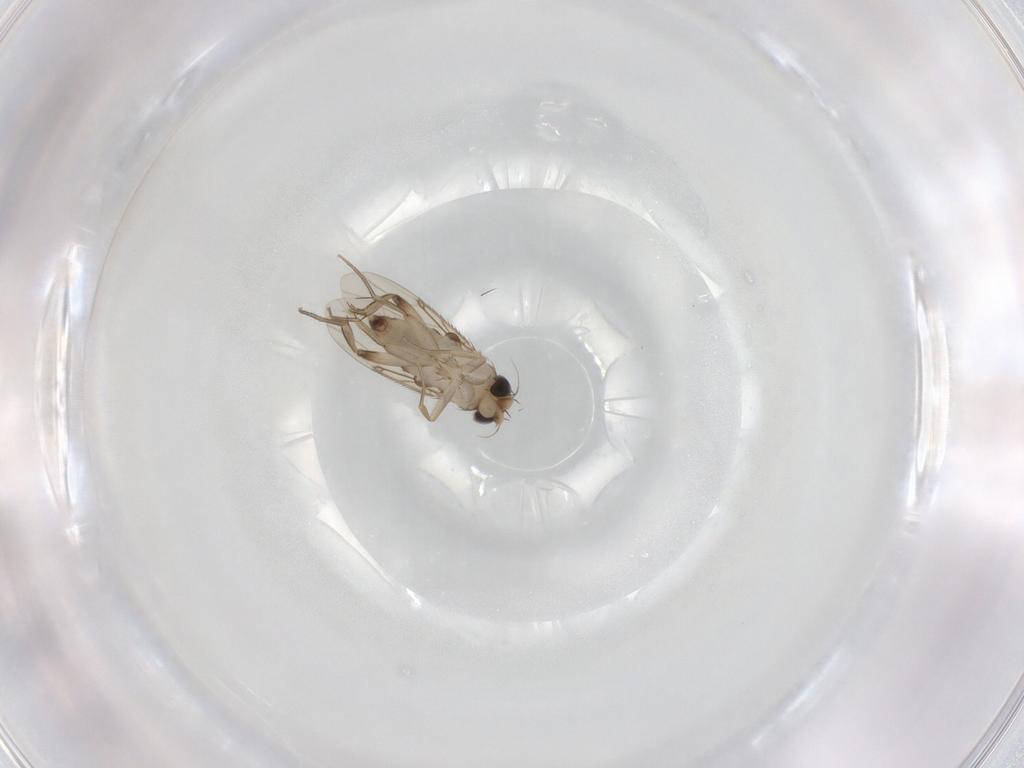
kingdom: Animalia
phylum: Arthropoda
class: Insecta
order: Diptera
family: Phoridae
